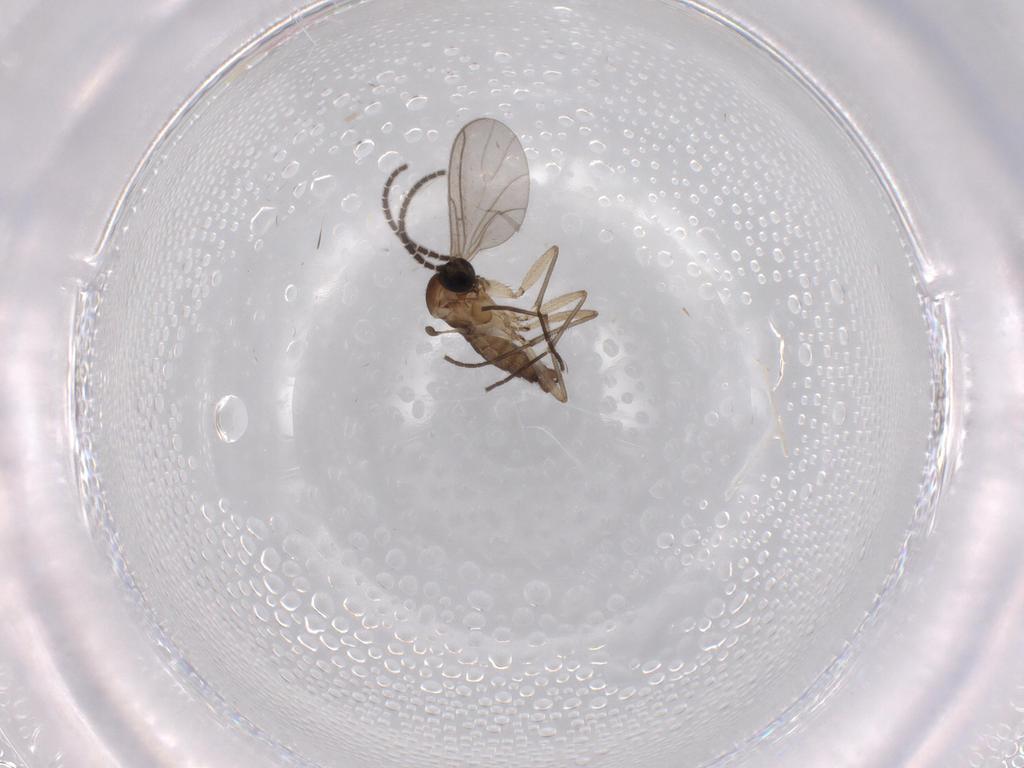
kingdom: Animalia
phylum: Arthropoda
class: Insecta
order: Diptera
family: Sciaridae
